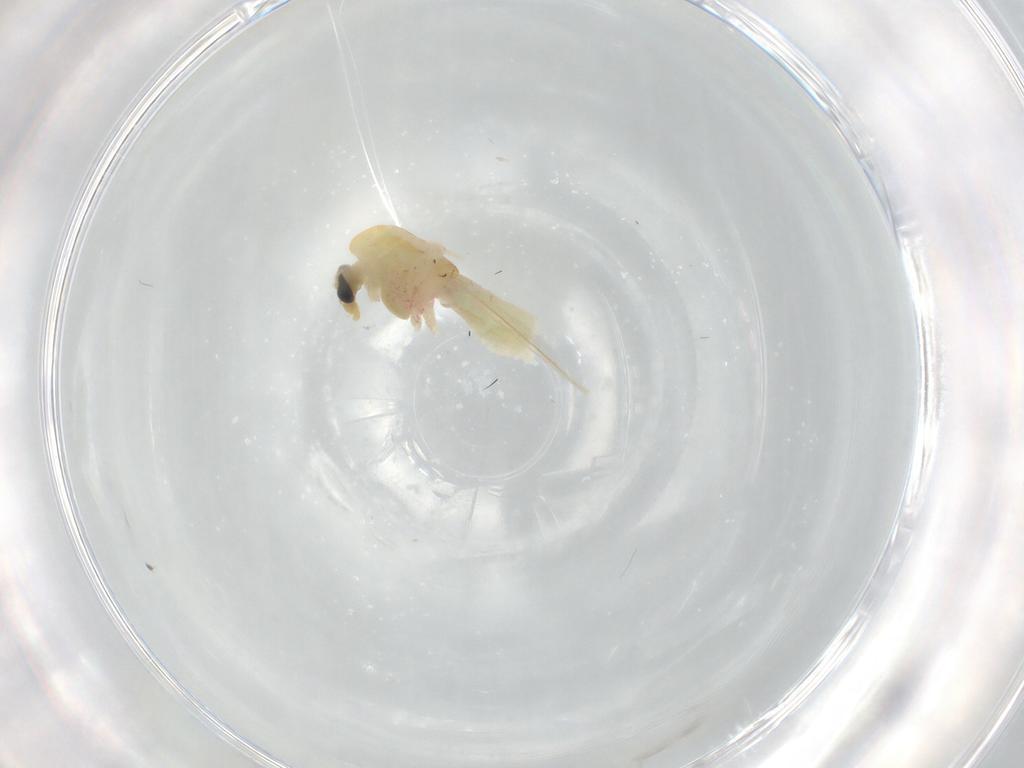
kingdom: Animalia
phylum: Arthropoda
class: Insecta
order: Diptera
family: Chironomidae
